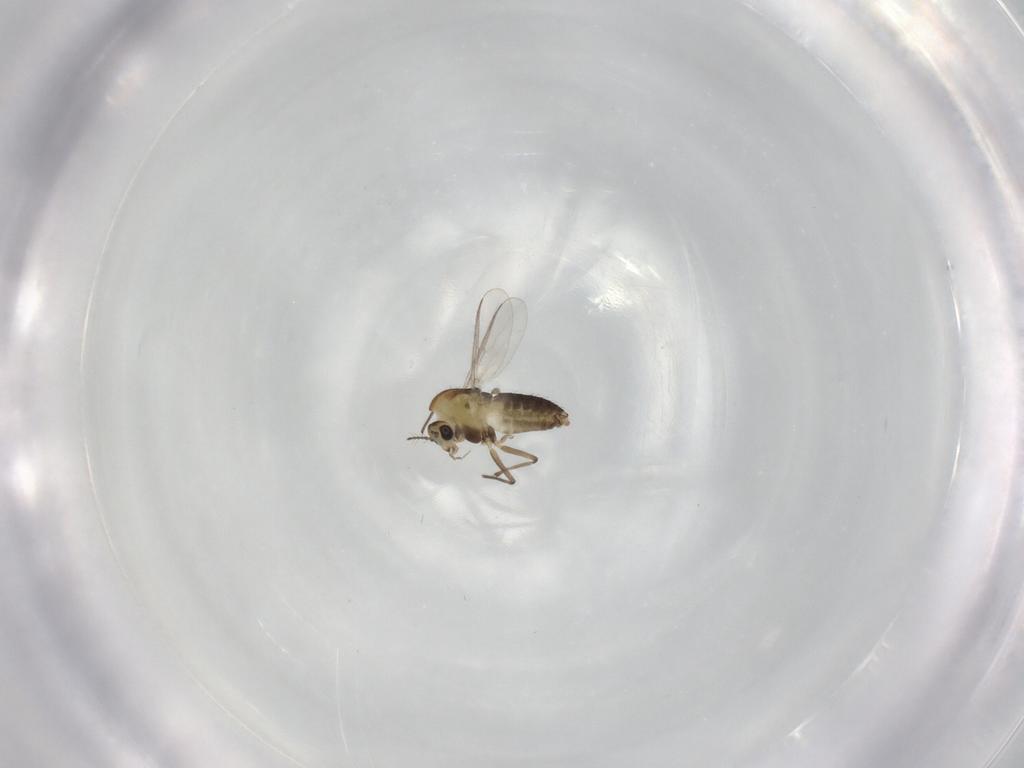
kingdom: Animalia
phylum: Arthropoda
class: Insecta
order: Diptera
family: Chironomidae
